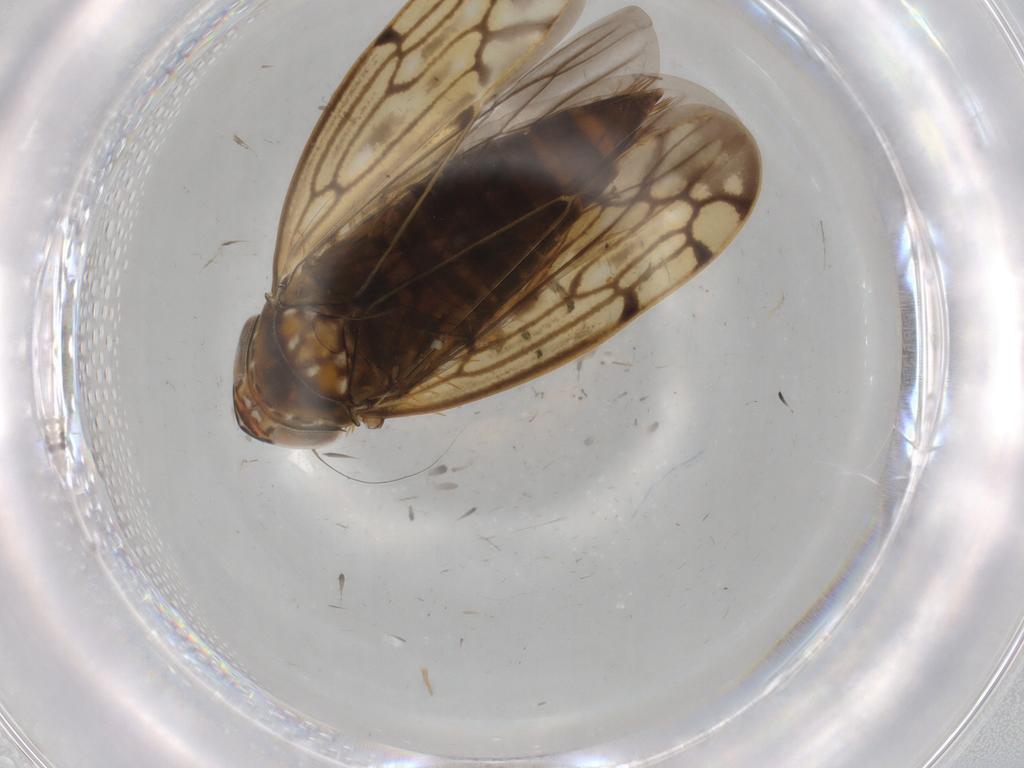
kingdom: Animalia
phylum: Arthropoda
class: Insecta
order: Hemiptera
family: Cicadellidae
